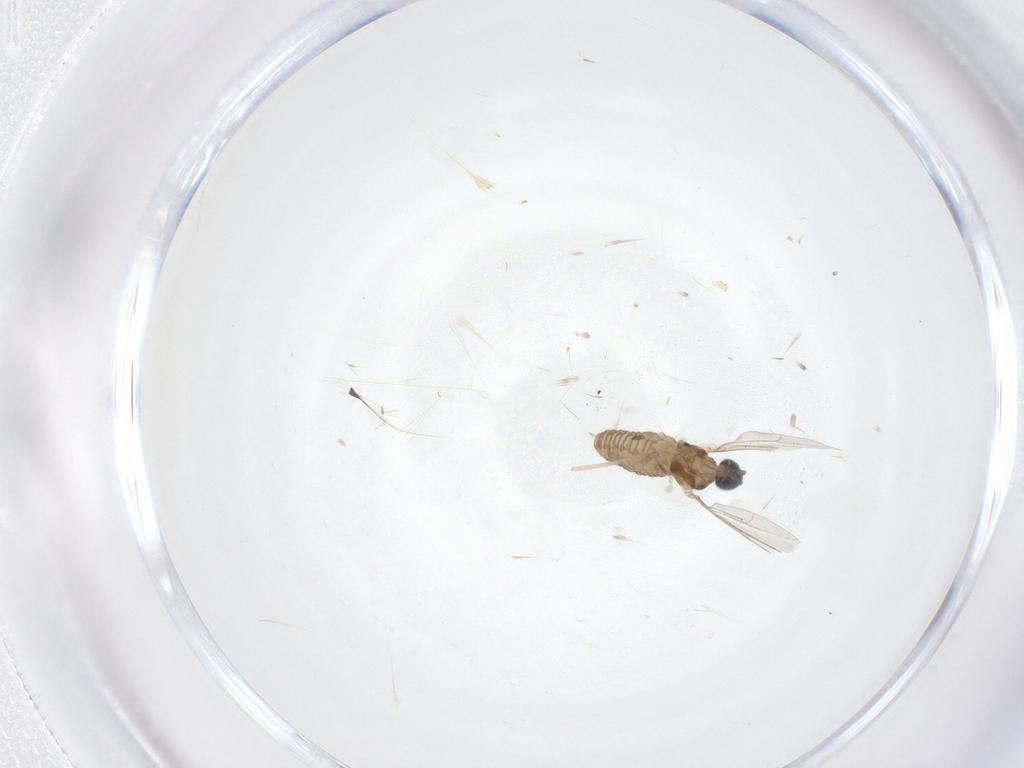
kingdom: Animalia
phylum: Arthropoda
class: Insecta
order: Diptera
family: Cecidomyiidae
